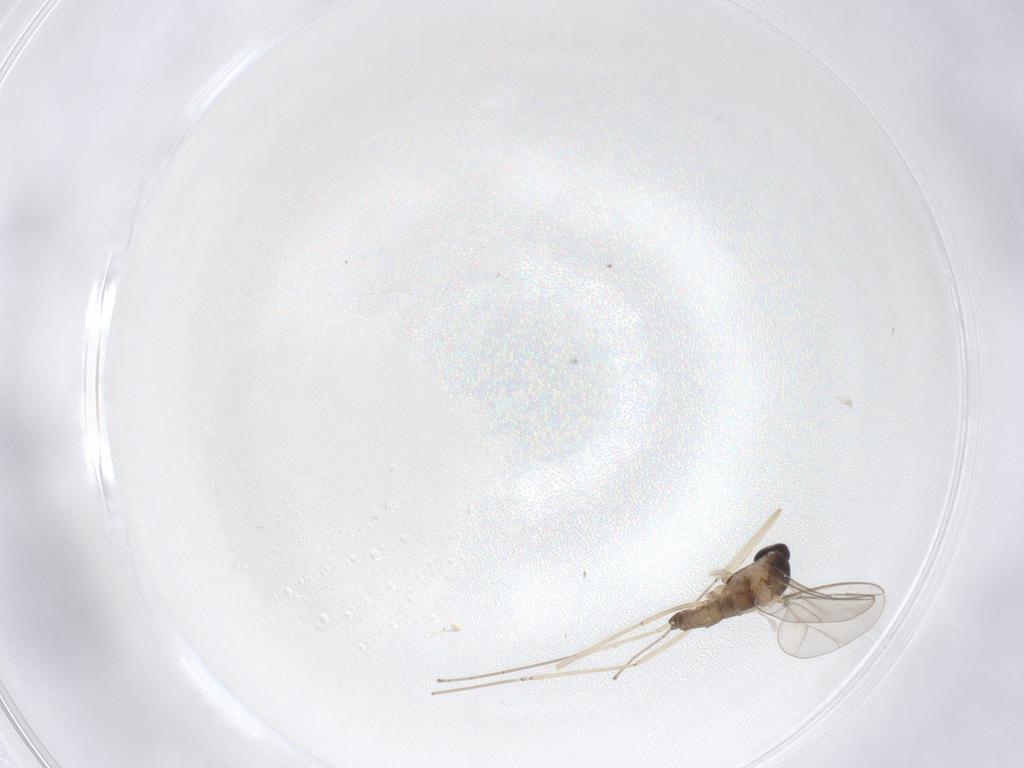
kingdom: Animalia
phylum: Arthropoda
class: Insecta
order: Diptera
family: Cecidomyiidae
